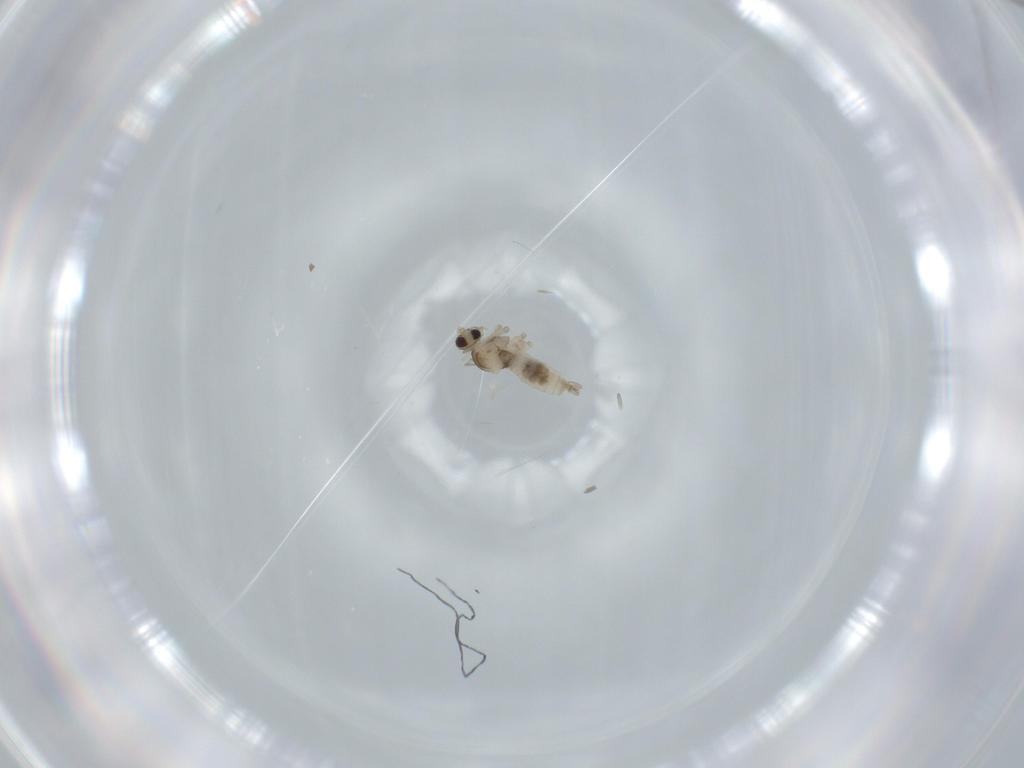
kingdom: Animalia
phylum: Arthropoda
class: Insecta
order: Diptera
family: Cecidomyiidae
